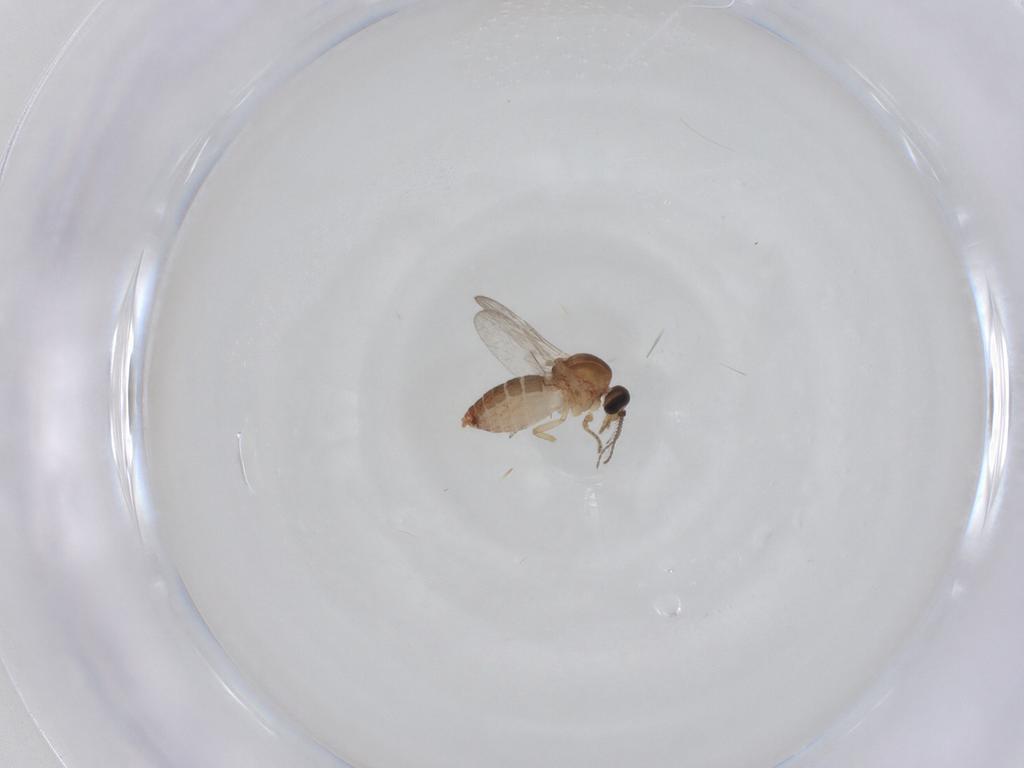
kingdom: Animalia
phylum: Arthropoda
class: Insecta
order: Diptera
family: Ceratopogonidae
